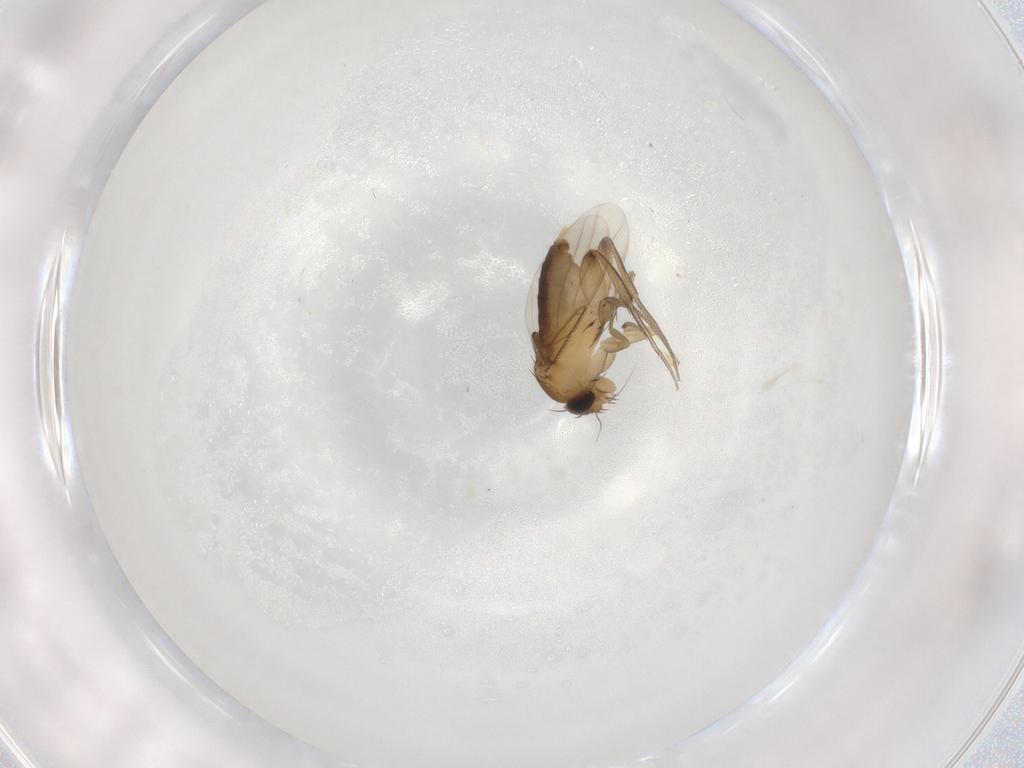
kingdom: Animalia
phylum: Arthropoda
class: Insecta
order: Diptera
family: Phoridae
